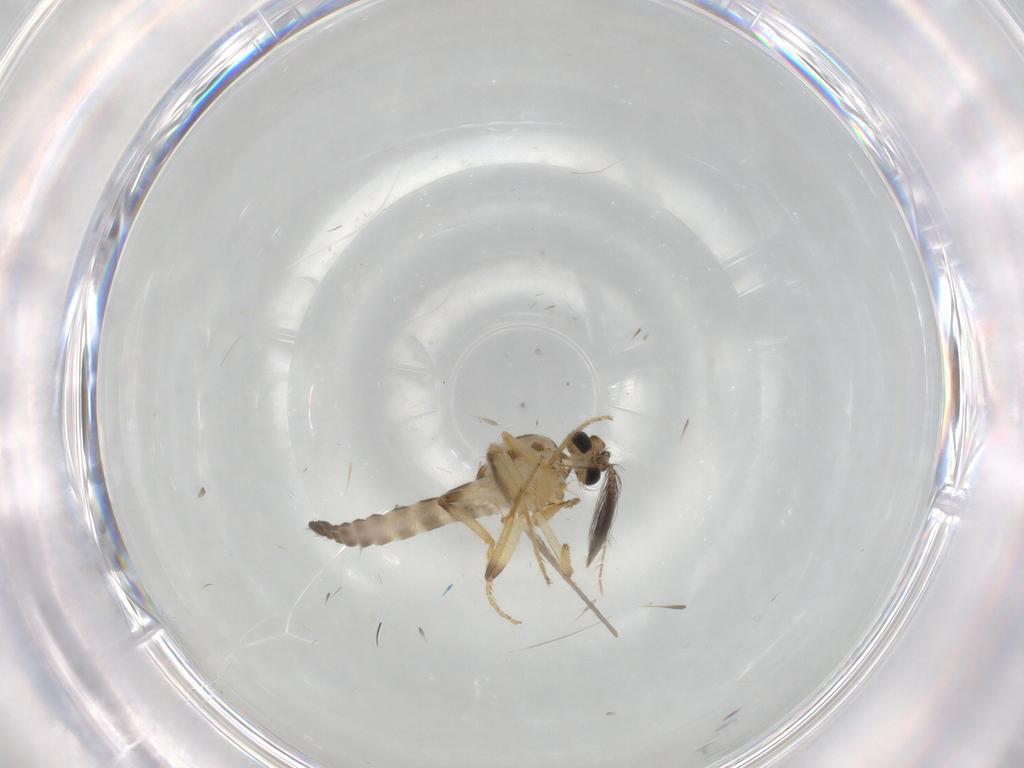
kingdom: Animalia
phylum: Arthropoda
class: Insecta
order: Diptera
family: Ceratopogonidae
